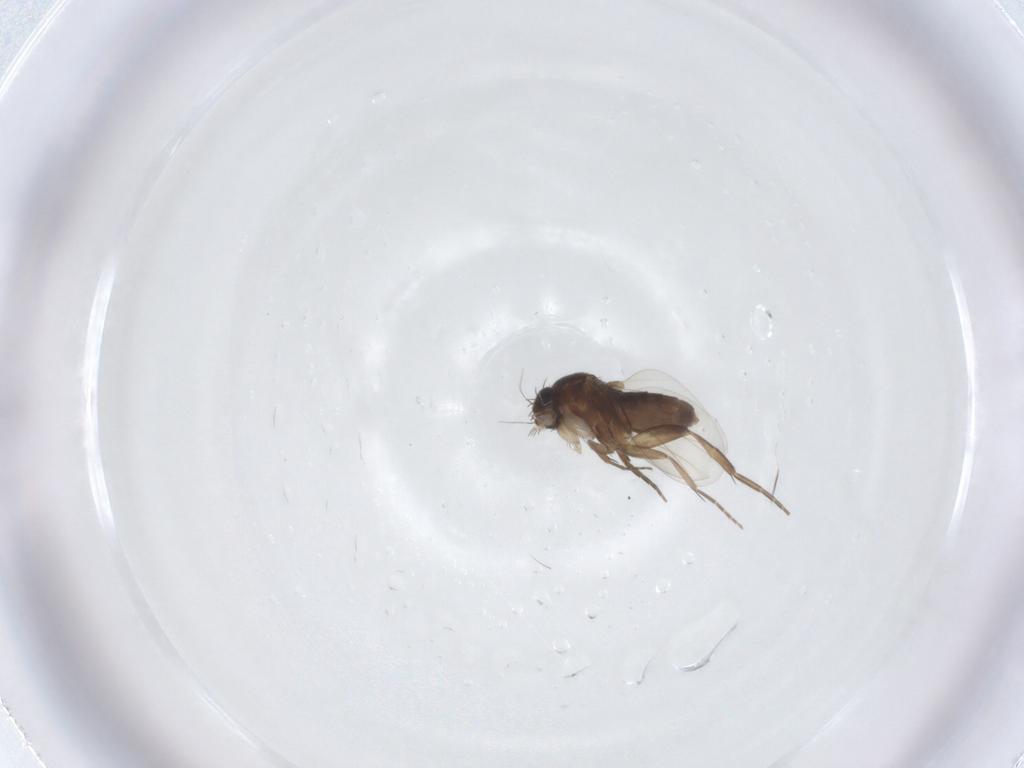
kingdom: Animalia
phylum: Arthropoda
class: Insecta
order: Diptera
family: Phoridae
